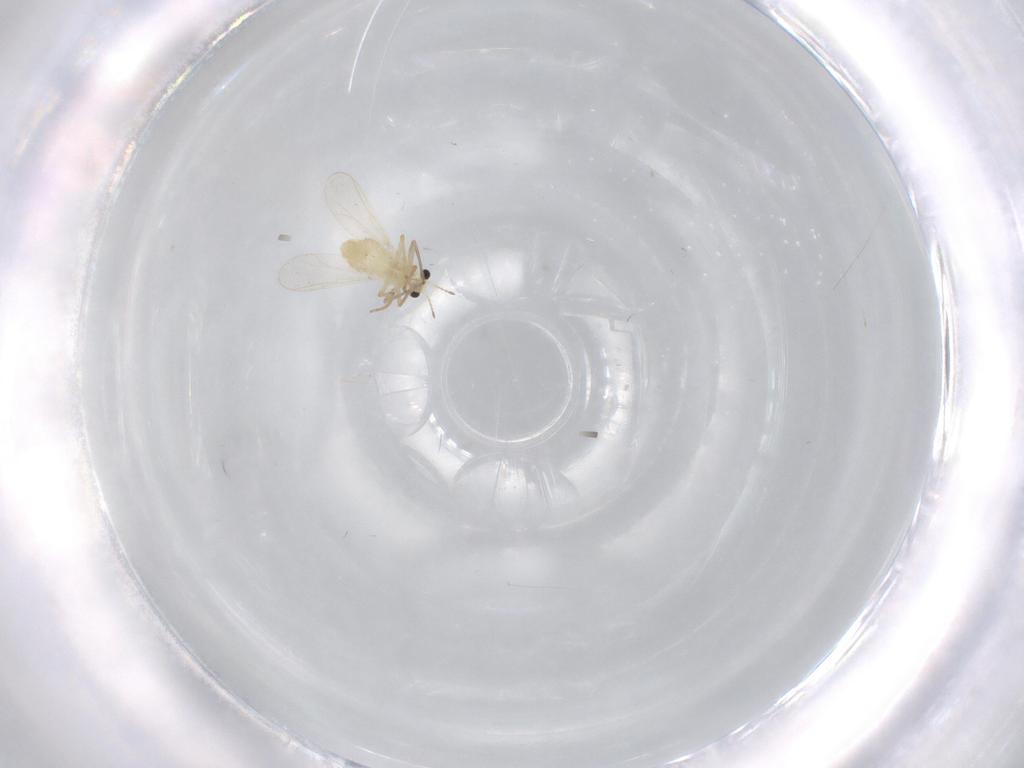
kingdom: Animalia
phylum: Arthropoda
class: Insecta
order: Diptera
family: Chironomidae
